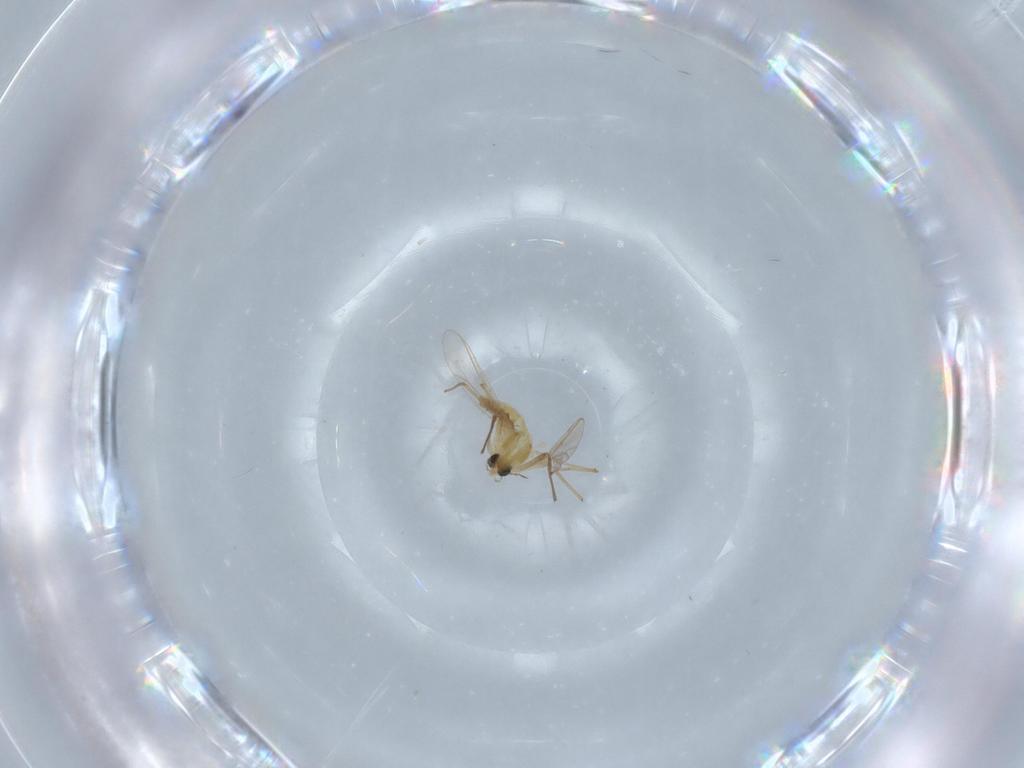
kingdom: Animalia
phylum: Arthropoda
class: Insecta
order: Diptera
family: Chironomidae
